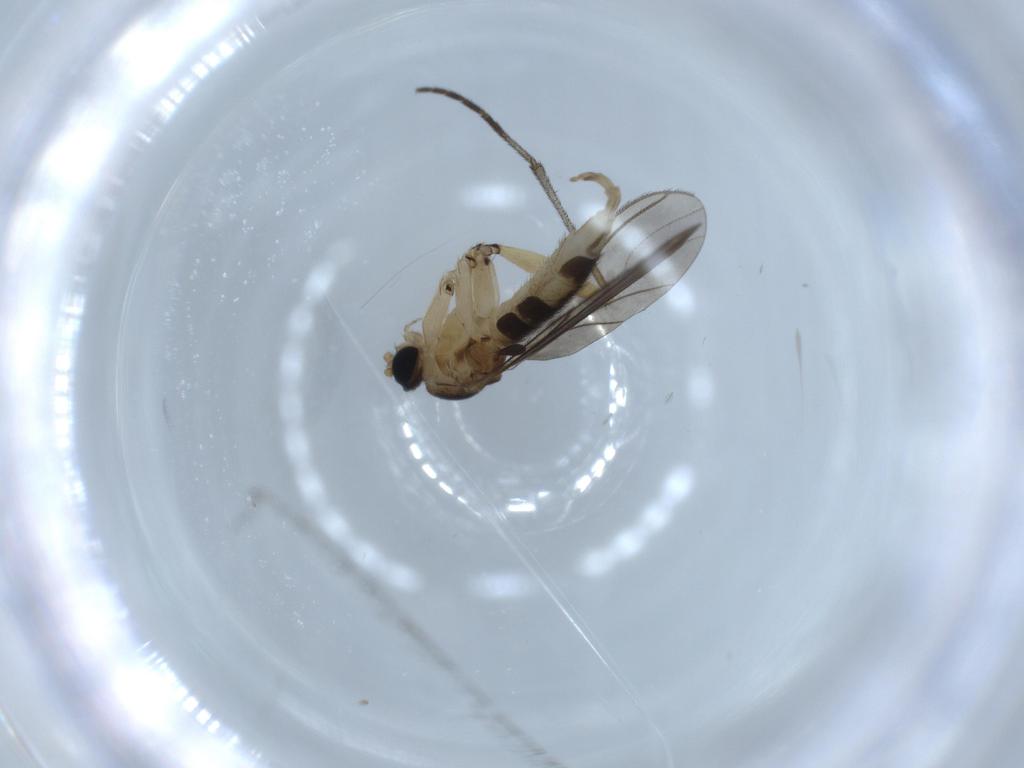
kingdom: Animalia
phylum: Arthropoda
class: Insecta
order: Diptera
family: Sciaridae
